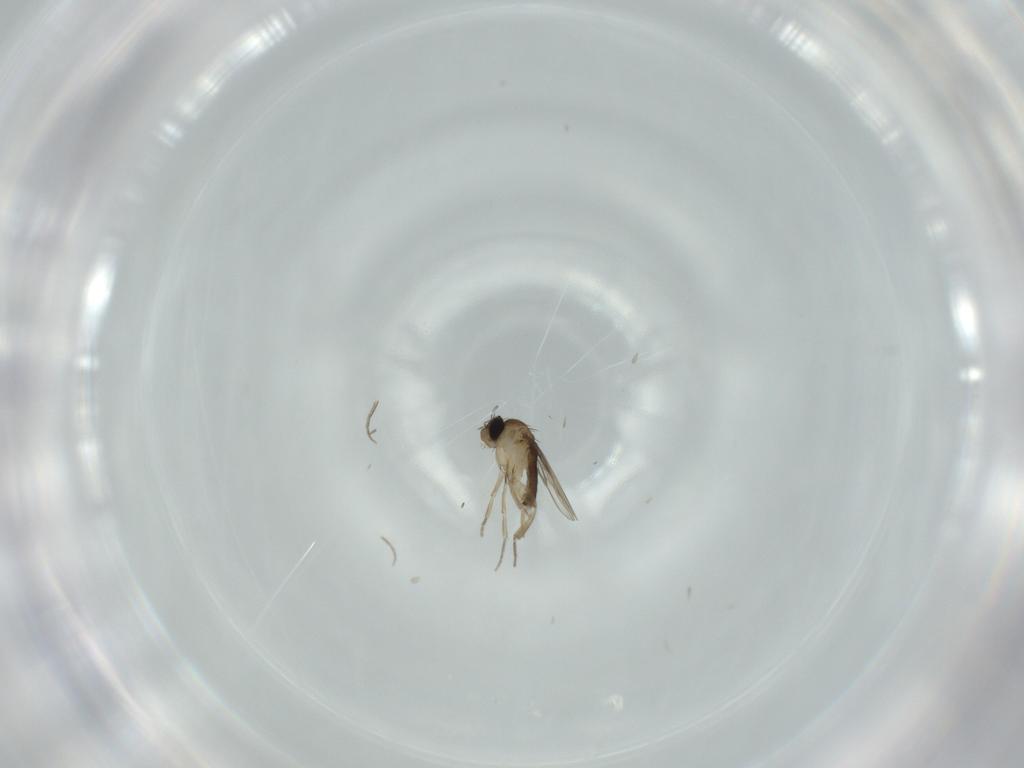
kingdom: Animalia
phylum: Arthropoda
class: Insecta
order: Diptera
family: Phoridae
